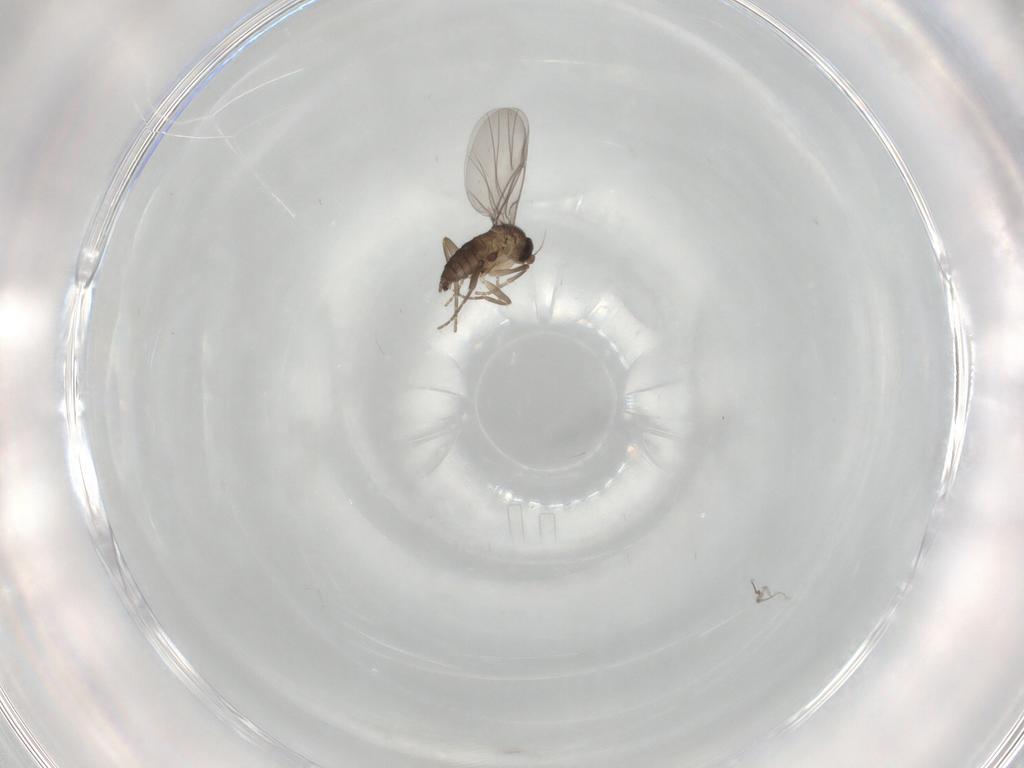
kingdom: Animalia
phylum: Arthropoda
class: Insecta
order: Diptera
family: Phoridae
